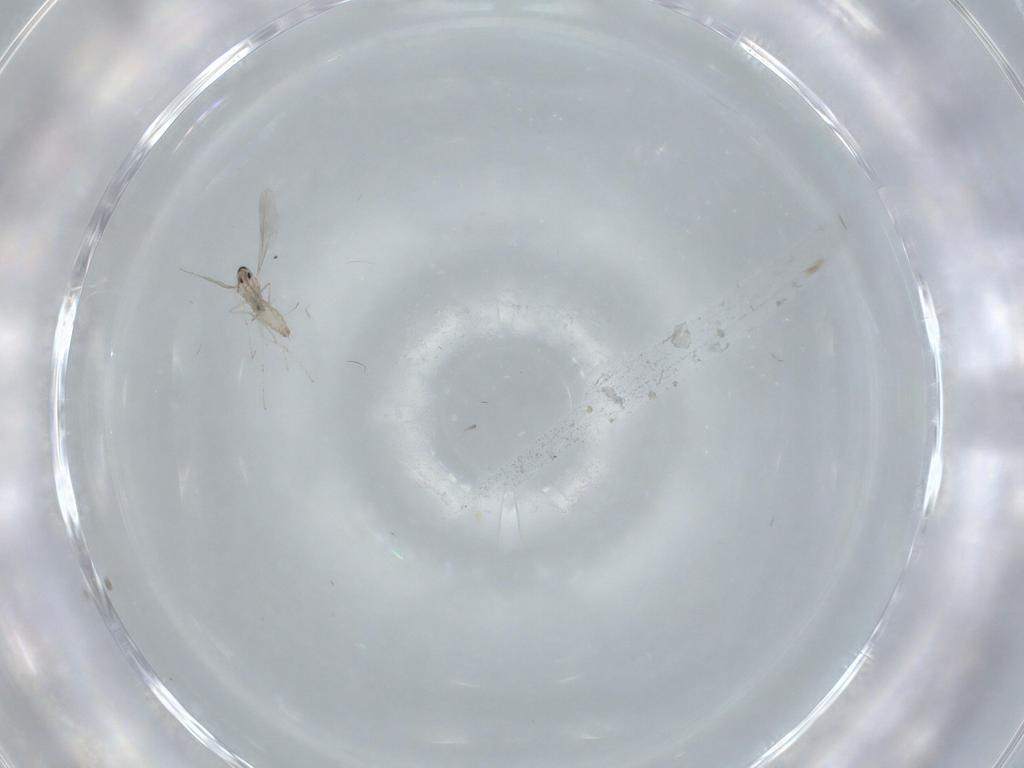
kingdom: Animalia
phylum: Arthropoda
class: Insecta
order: Diptera
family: Cecidomyiidae
